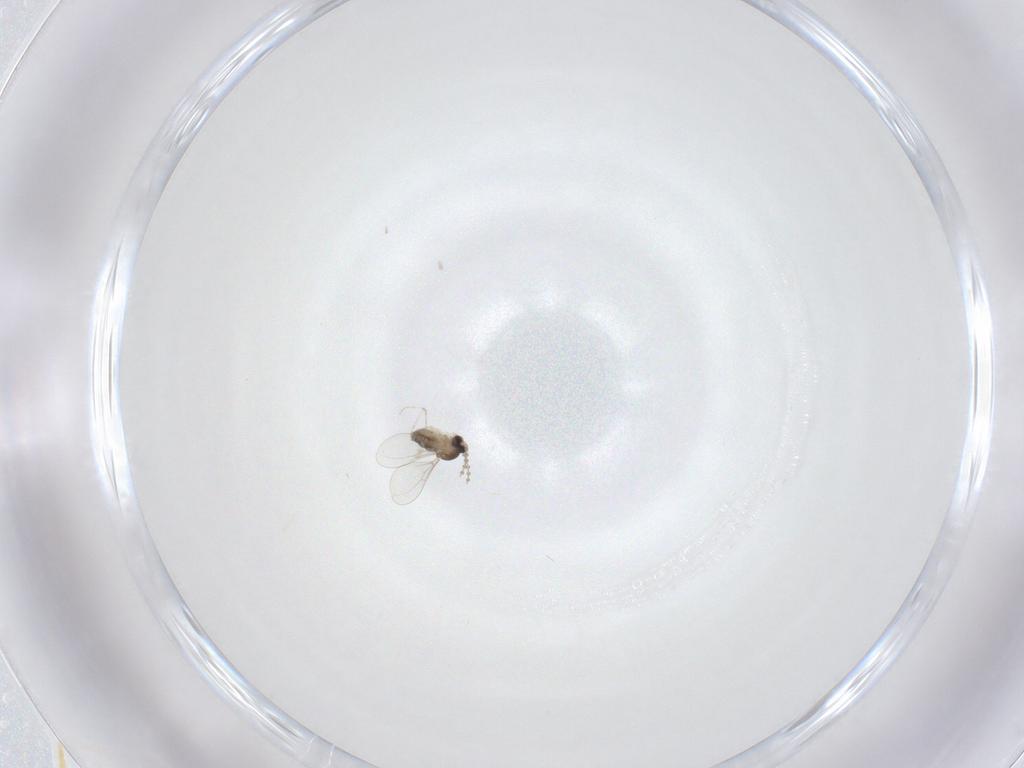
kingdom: Animalia
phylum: Arthropoda
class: Insecta
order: Diptera
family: Cecidomyiidae
